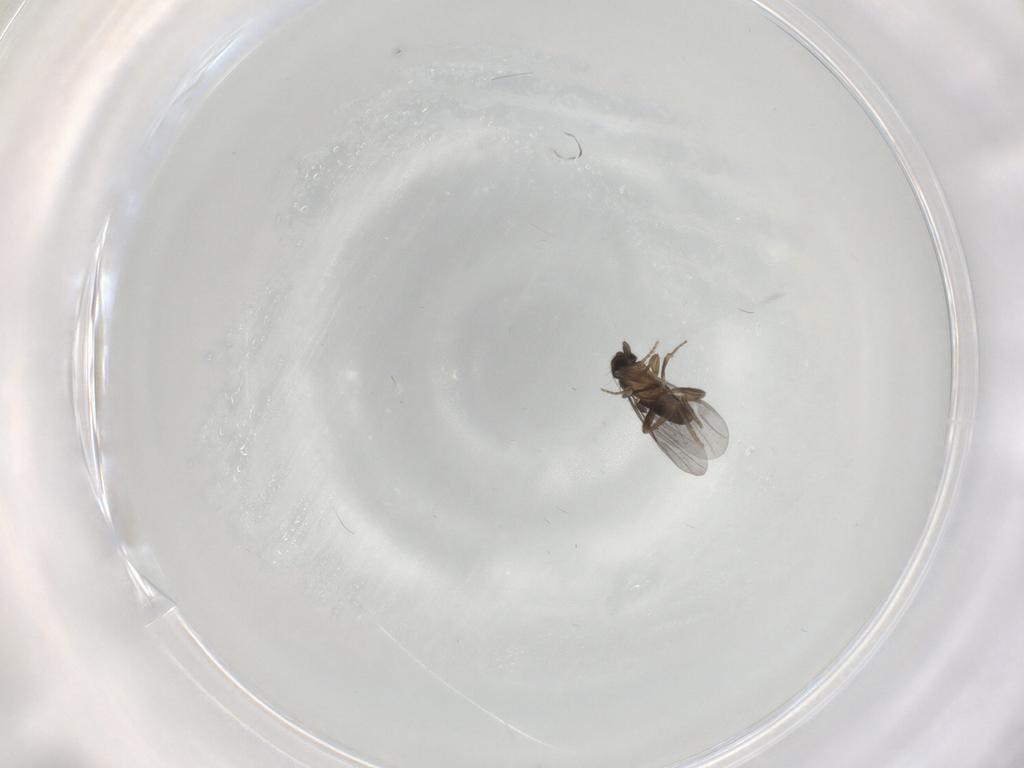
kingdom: Animalia
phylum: Arthropoda
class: Insecta
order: Diptera
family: Chironomidae
